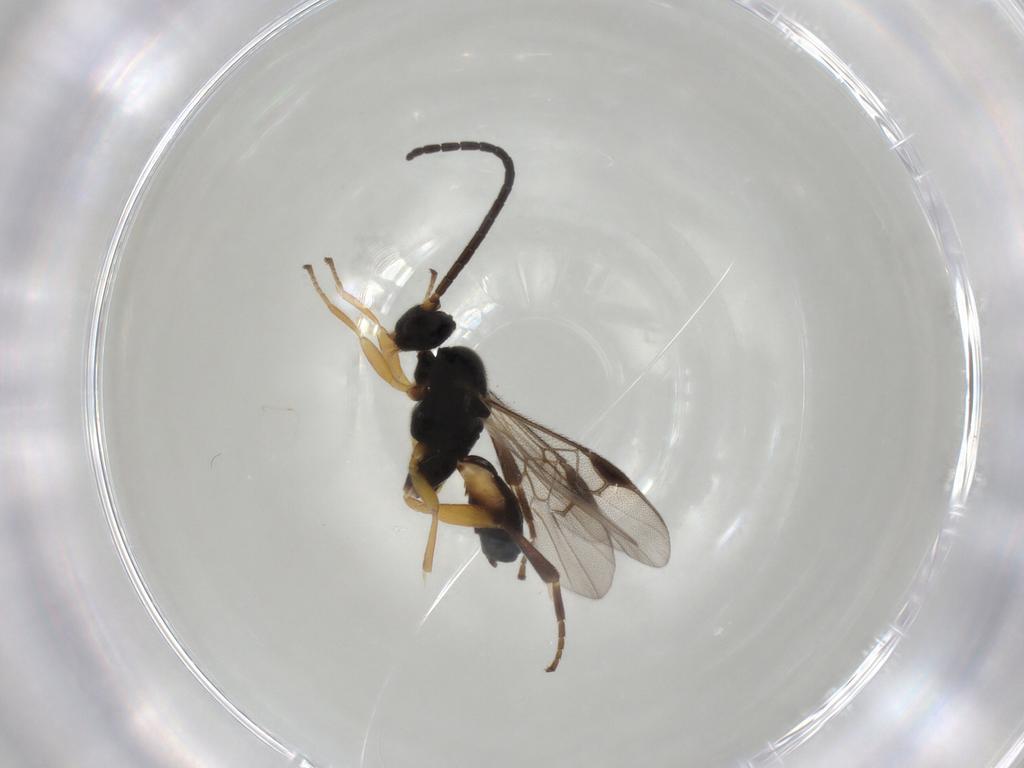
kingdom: Animalia
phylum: Arthropoda
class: Insecta
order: Hymenoptera
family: Braconidae
